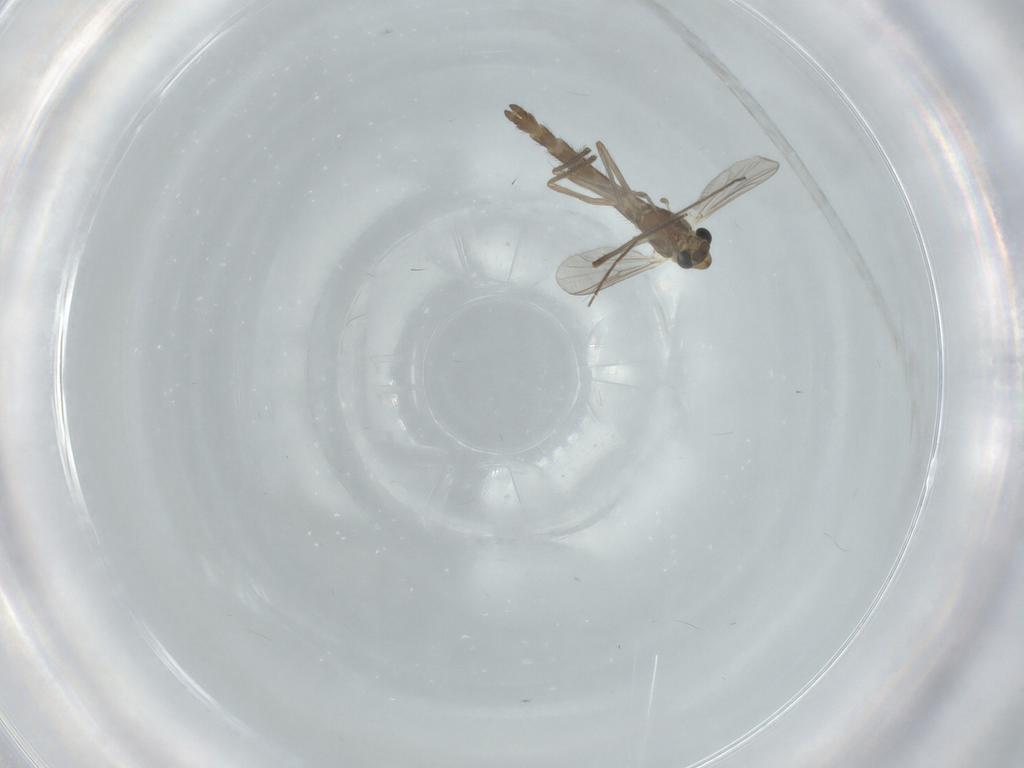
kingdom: Animalia
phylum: Arthropoda
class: Insecta
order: Diptera
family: Chironomidae
